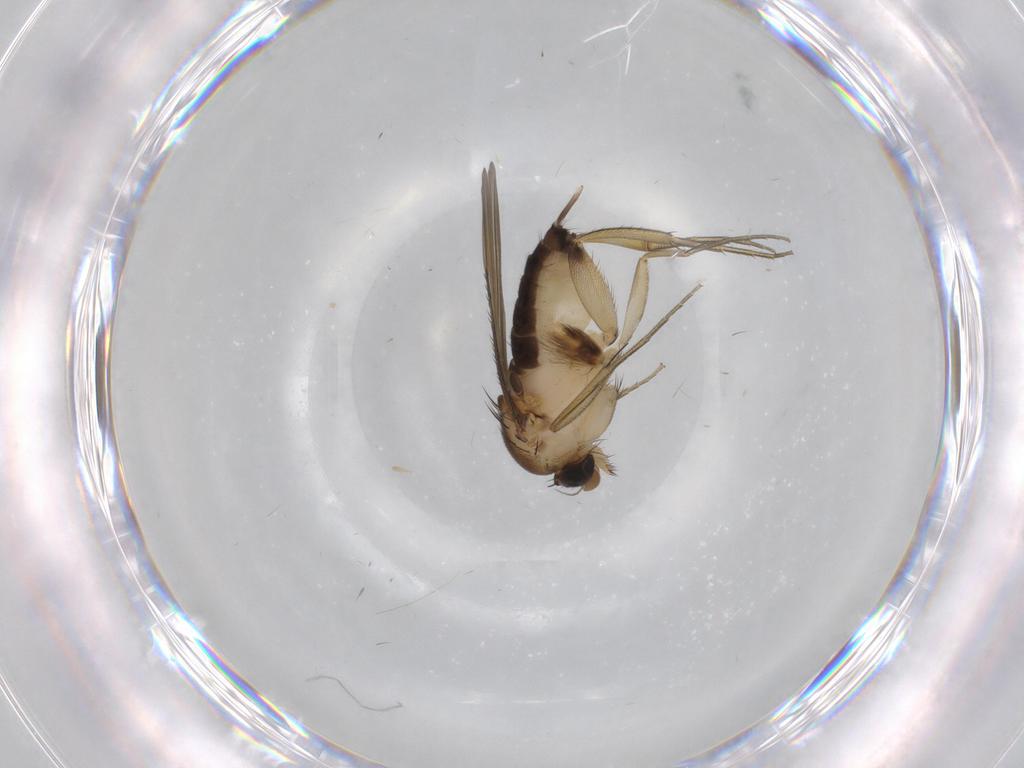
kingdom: Animalia
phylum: Arthropoda
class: Insecta
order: Diptera
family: Phoridae
